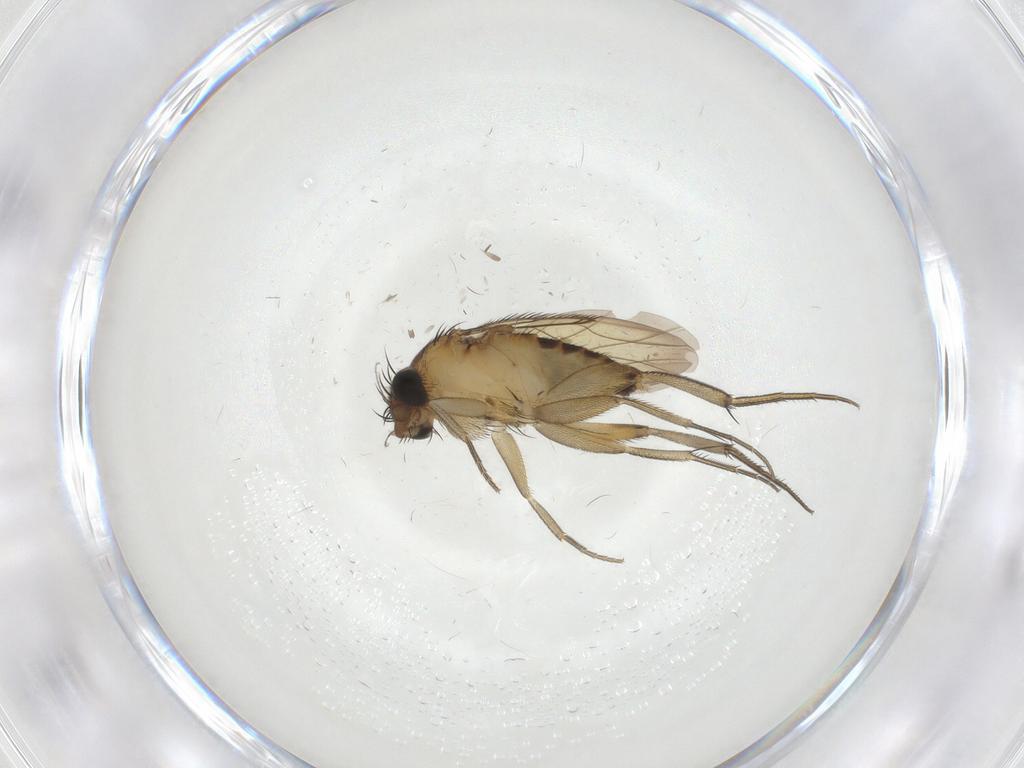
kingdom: Animalia
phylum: Arthropoda
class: Insecta
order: Diptera
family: Phoridae
